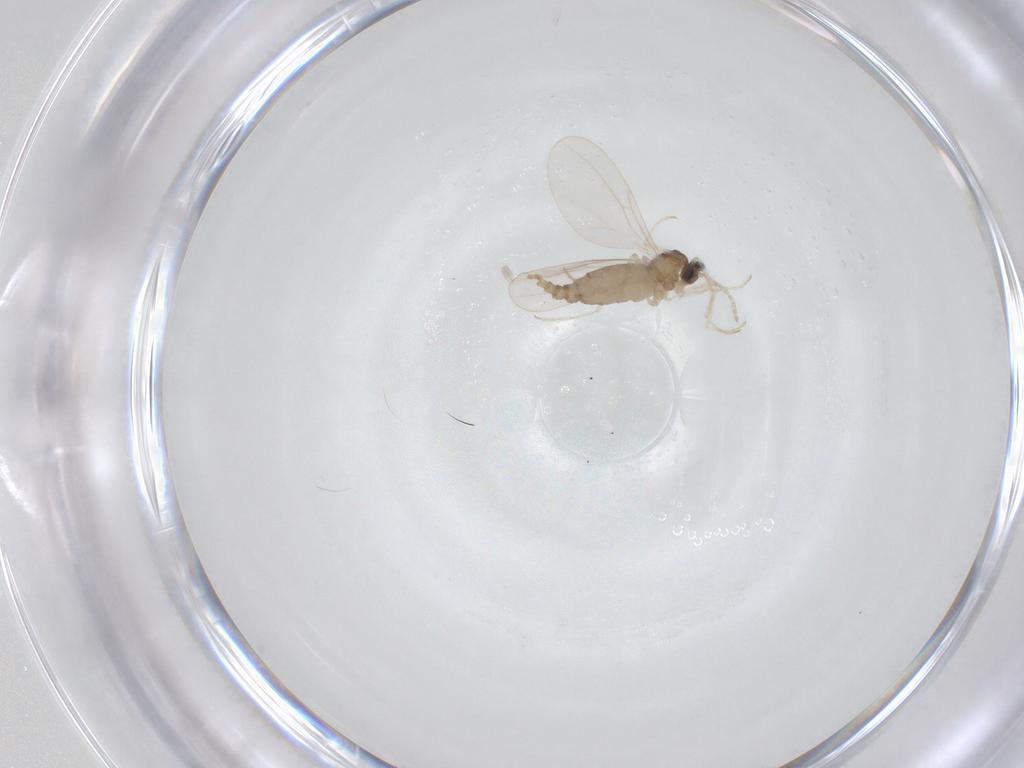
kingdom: Animalia
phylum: Arthropoda
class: Insecta
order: Diptera
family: Cecidomyiidae
